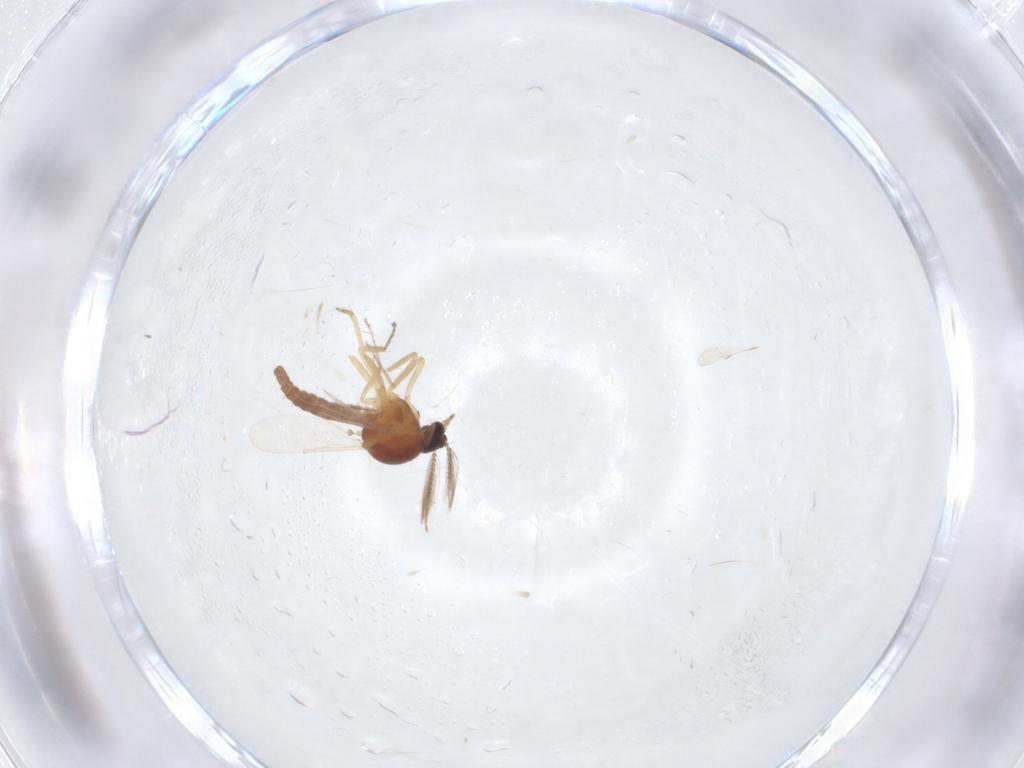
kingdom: Animalia
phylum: Arthropoda
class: Insecta
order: Diptera
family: Ceratopogonidae
